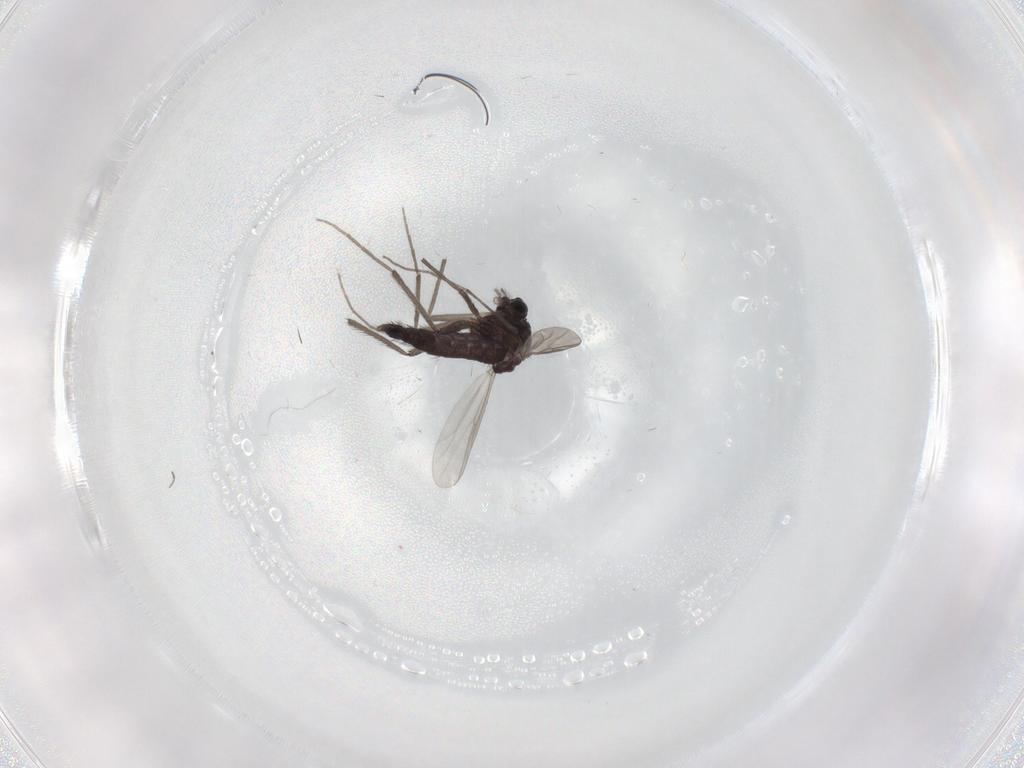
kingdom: Animalia
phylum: Arthropoda
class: Insecta
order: Diptera
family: Chironomidae
